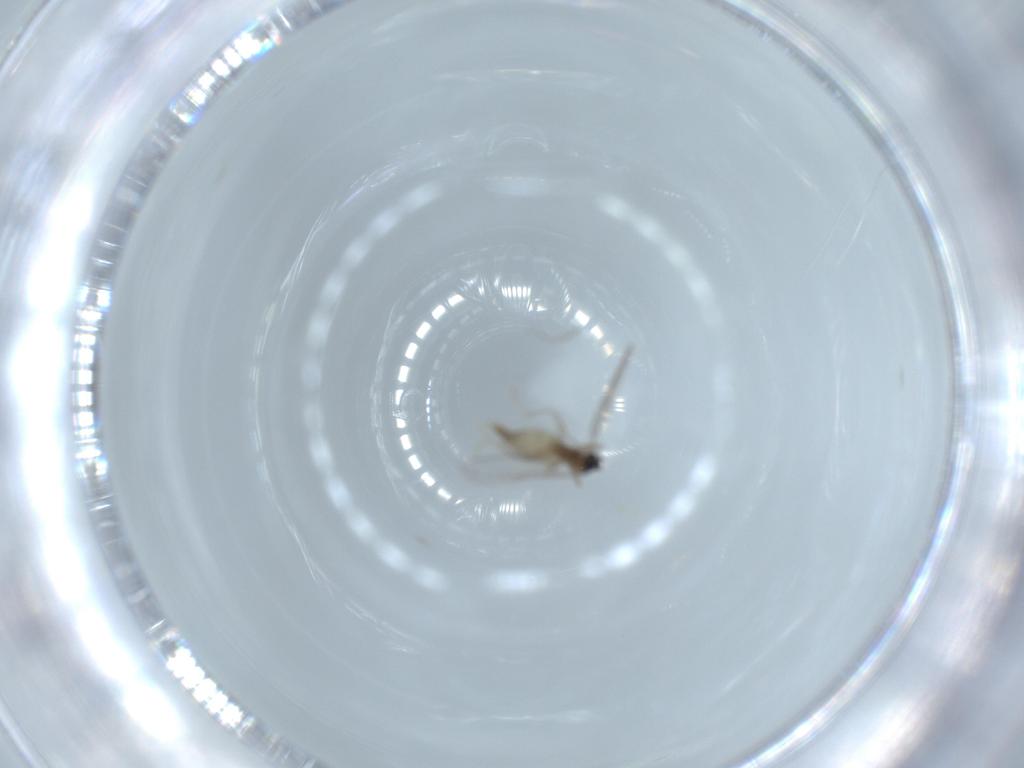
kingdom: Animalia
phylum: Arthropoda
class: Insecta
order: Diptera
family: Cecidomyiidae
